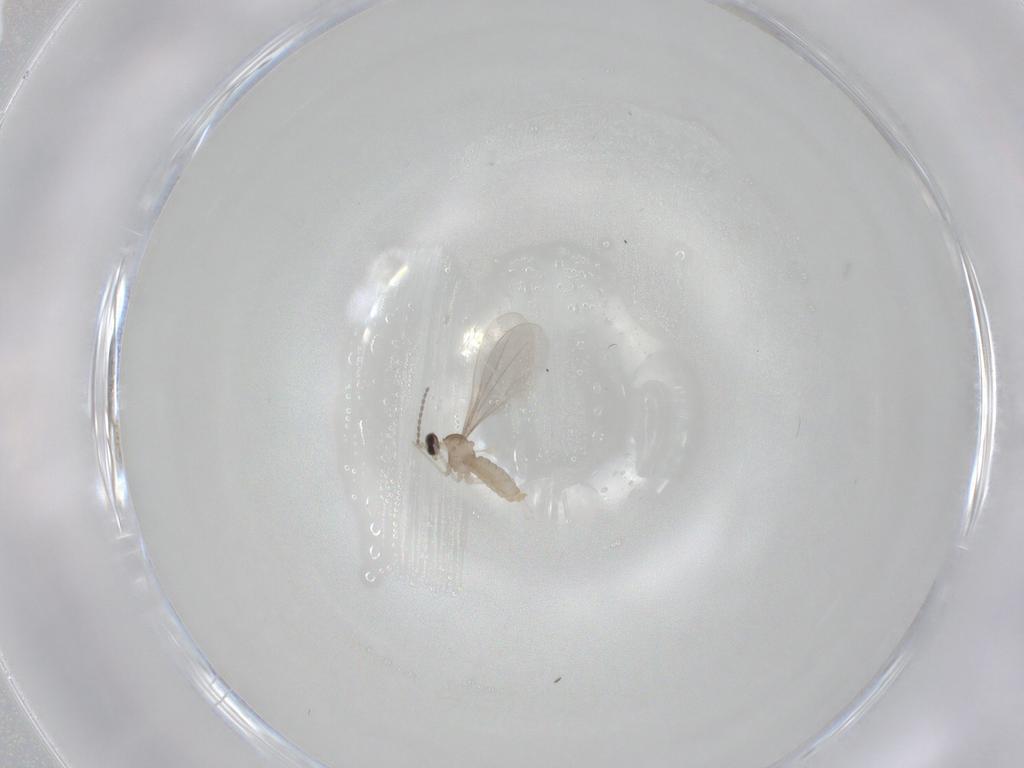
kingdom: Animalia
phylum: Arthropoda
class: Insecta
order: Diptera
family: Cecidomyiidae
